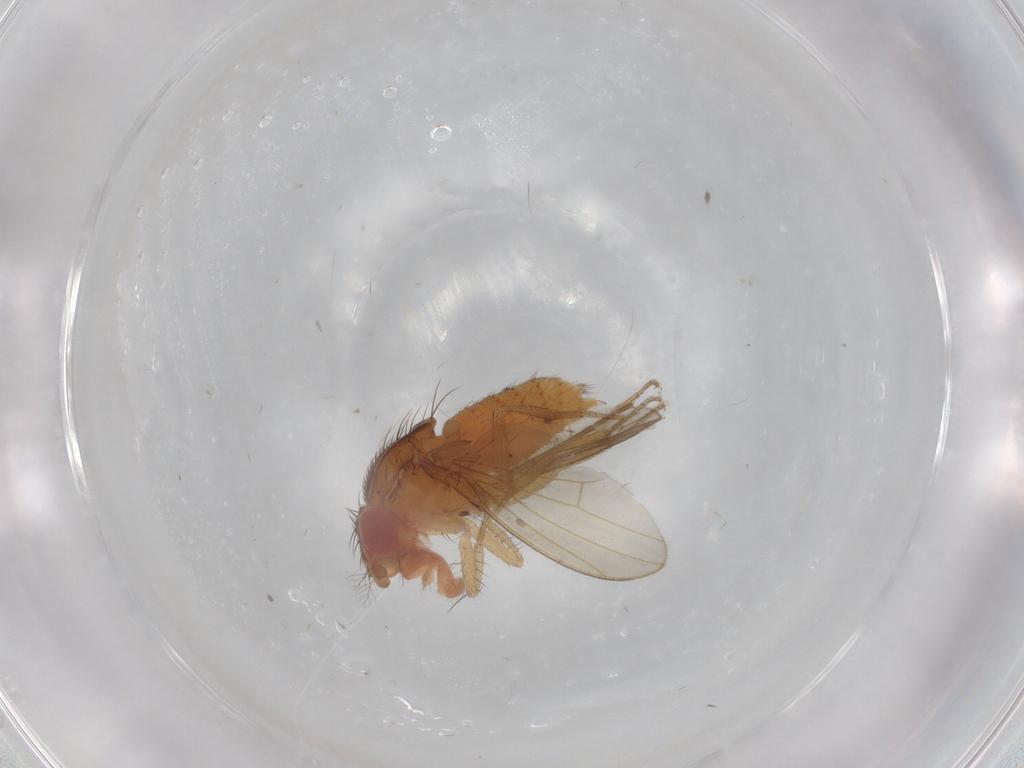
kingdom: Animalia
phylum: Arthropoda
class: Insecta
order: Diptera
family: Drosophilidae
